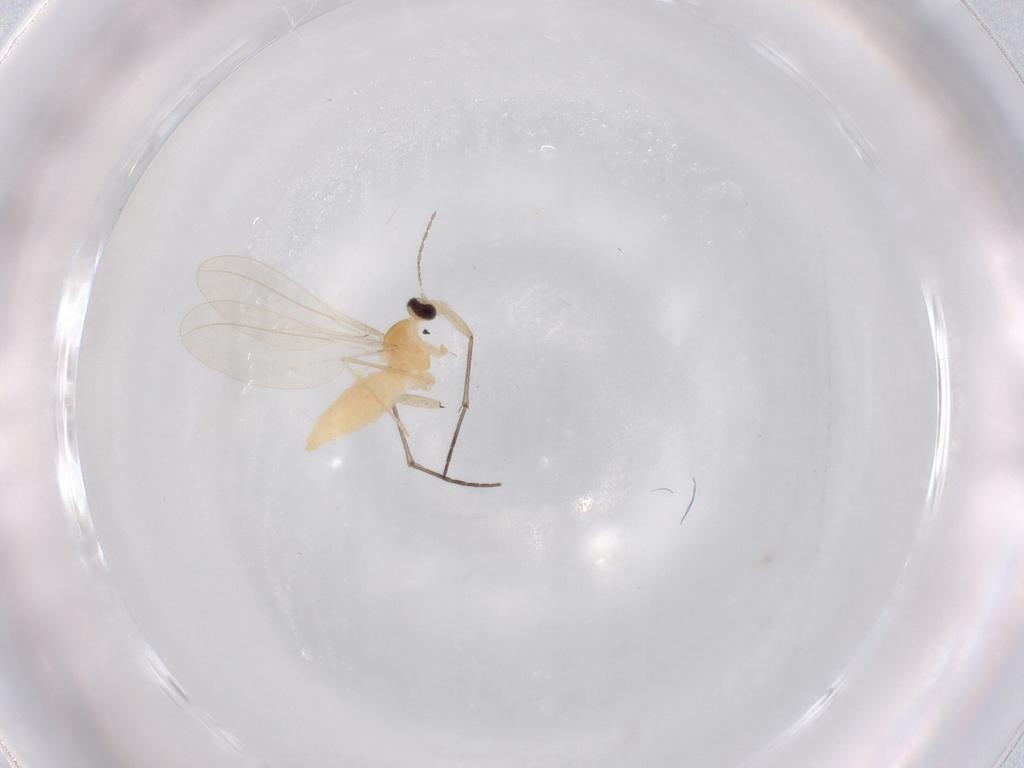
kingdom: Animalia
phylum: Arthropoda
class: Insecta
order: Diptera
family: Cecidomyiidae
